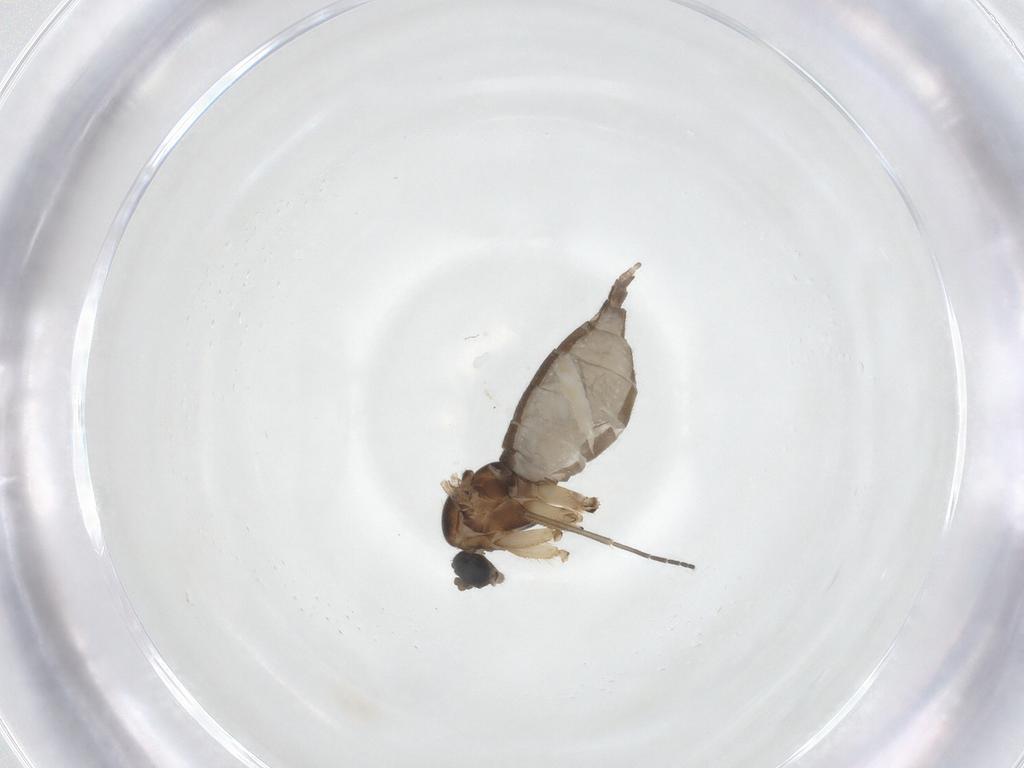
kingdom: Animalia
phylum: Arthropoda
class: Insecta
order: Diptera
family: Sciaridae
